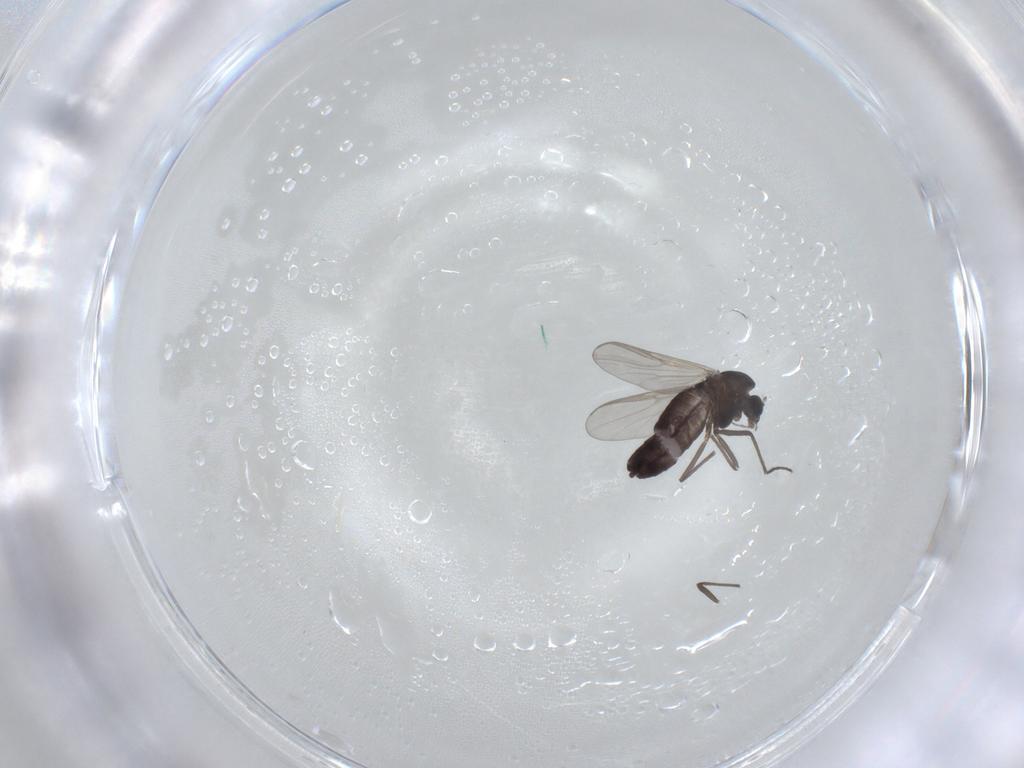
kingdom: Animalia
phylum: Arthropoda
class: Insecta
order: Diptera
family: Chironomidae
